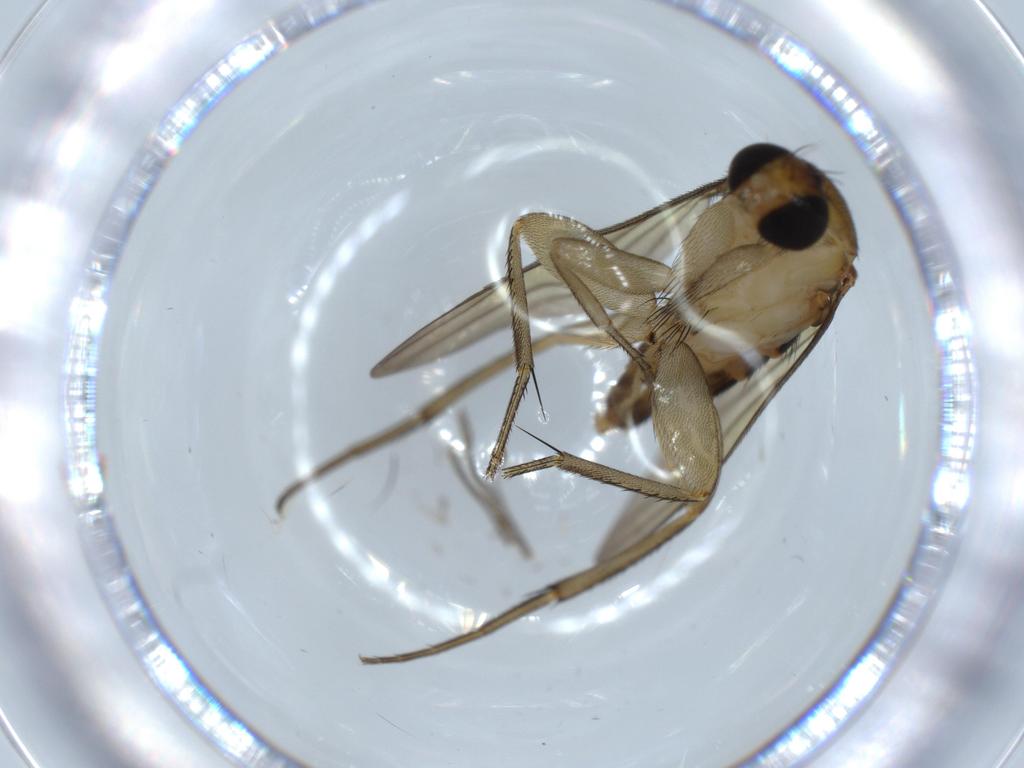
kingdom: Animalia
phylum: Arthropoda
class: Insecta
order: Diptera
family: Phoridae
